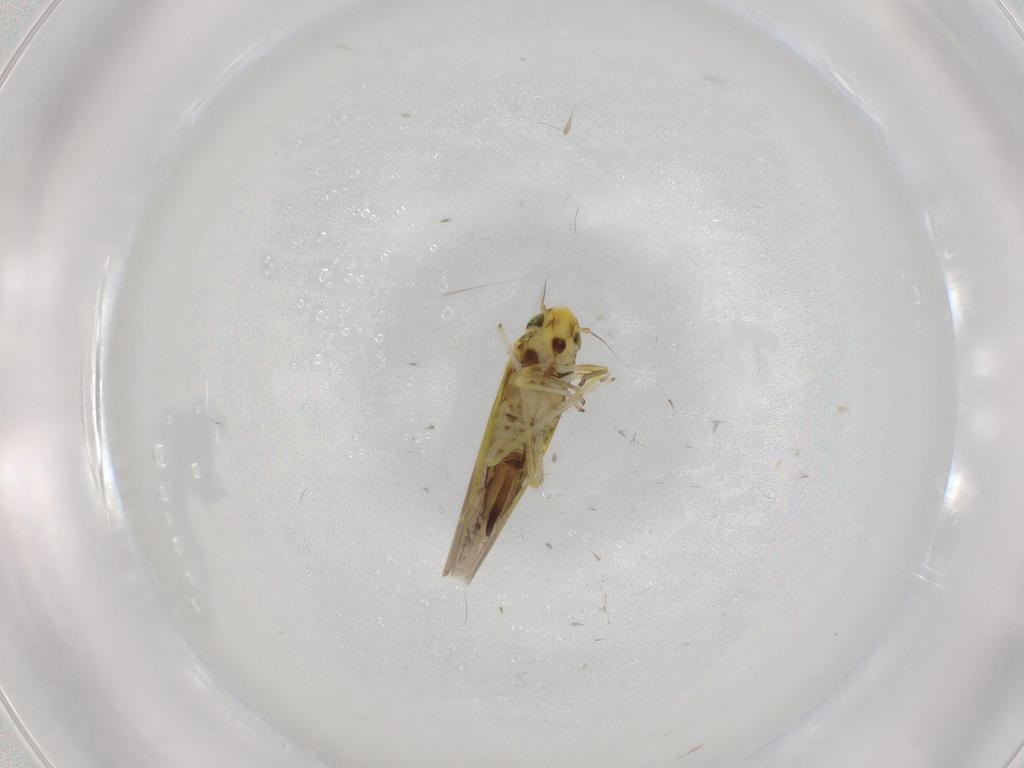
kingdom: Animalia
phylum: Arthropoda
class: Insecta
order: Hemiptera
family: Cicadellidae
